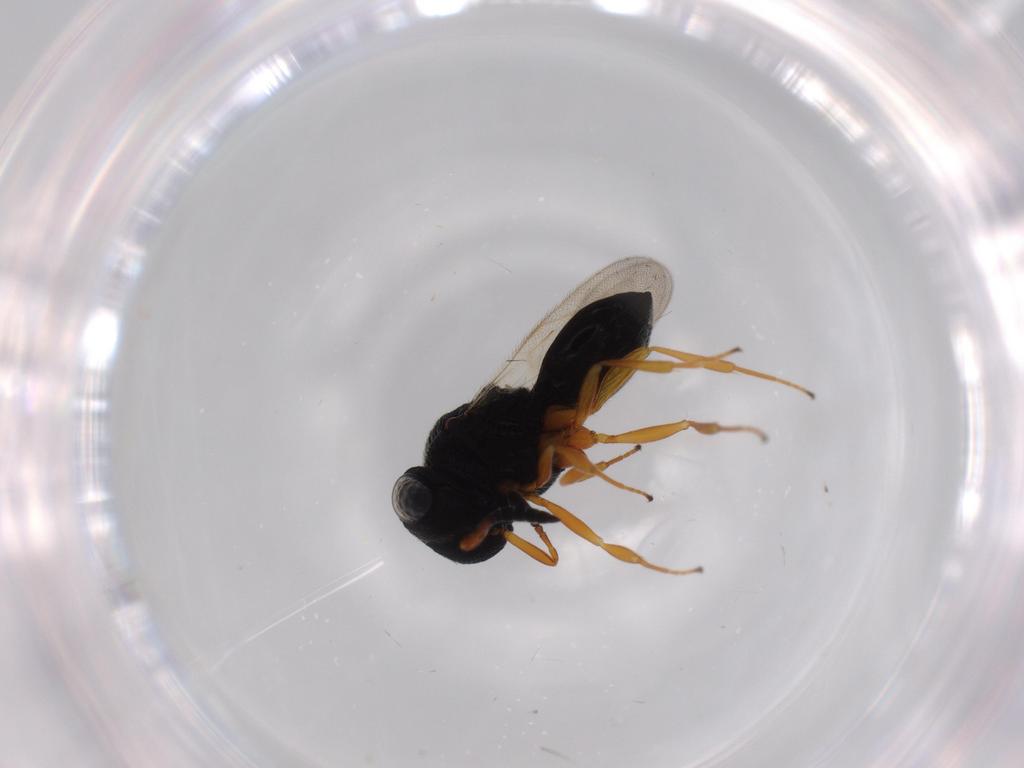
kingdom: Animalia
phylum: Arthropoda
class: Insecta
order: Hymenoptera
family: Scelionidae
